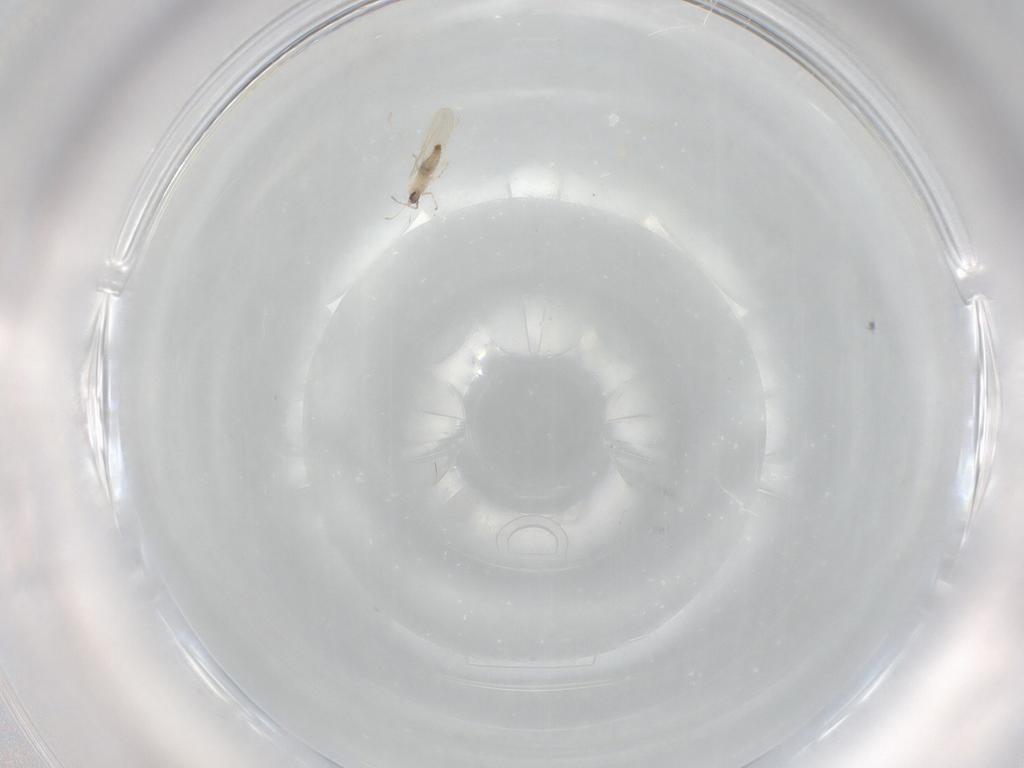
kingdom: Animalia
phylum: Arthropoda
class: Insecta
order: Diptera
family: Cecidomyiidae
